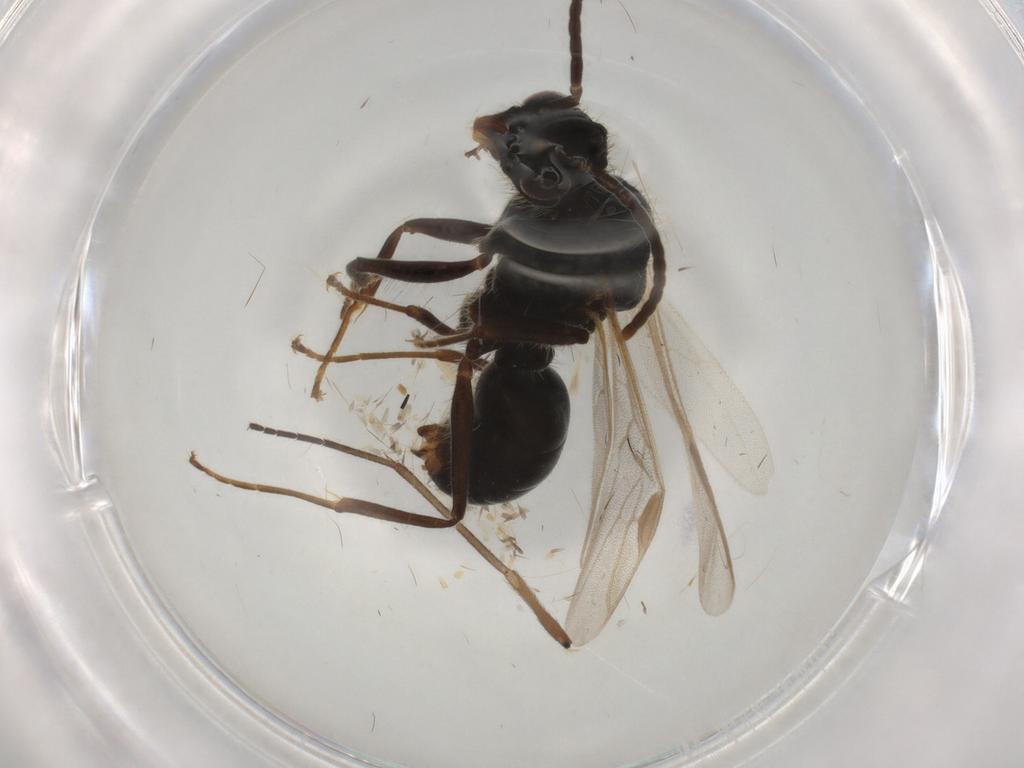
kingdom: Animalia
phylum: Arthropoda
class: Insecta
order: Hymenoptera
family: Formicidae
